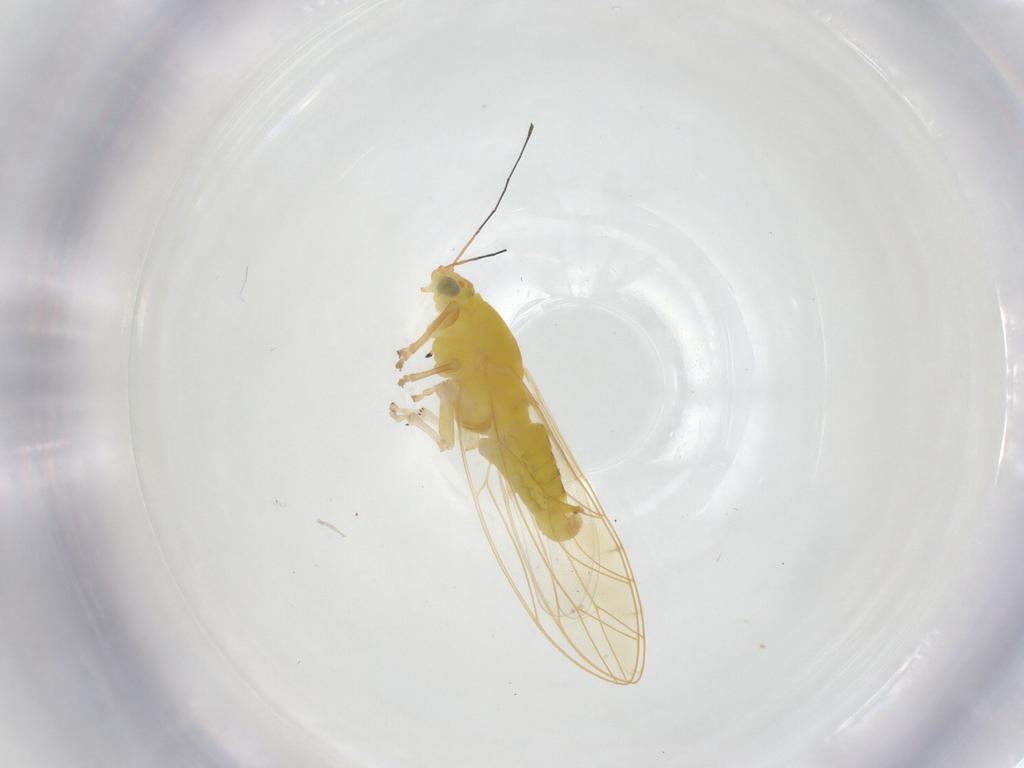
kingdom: Animalia
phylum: Arthropoda
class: Insecta
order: Hemiptera
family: Triozidae
